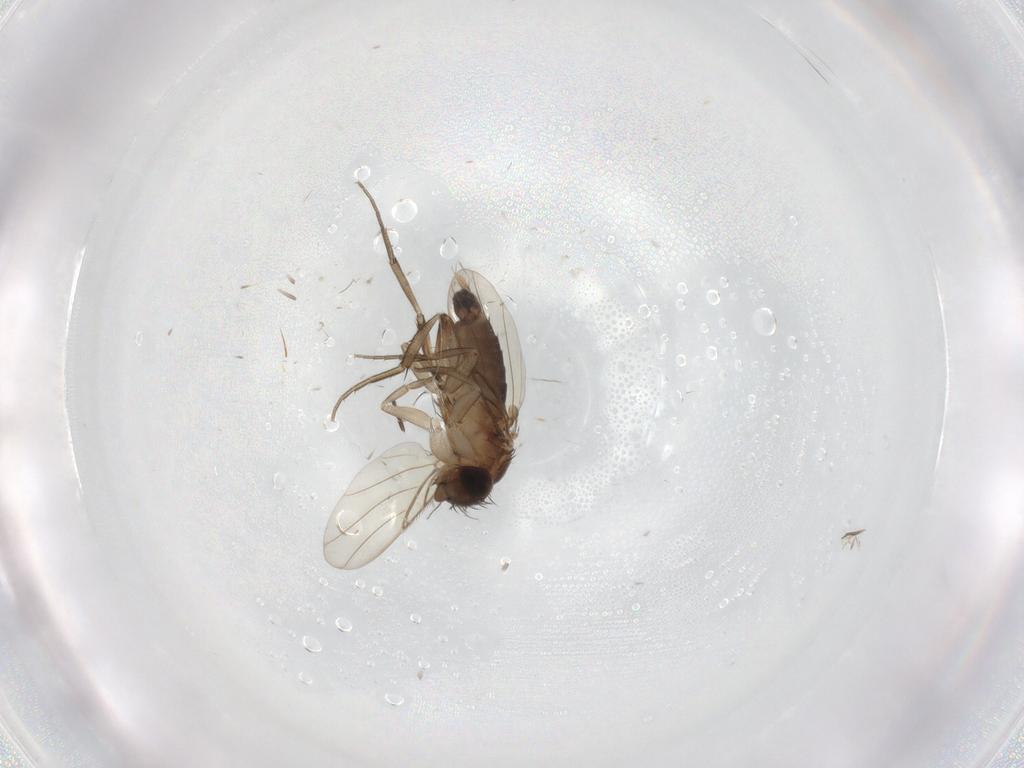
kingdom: Animalia
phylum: Arthropoda
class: Insecta
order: Diptera
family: Phoridae
